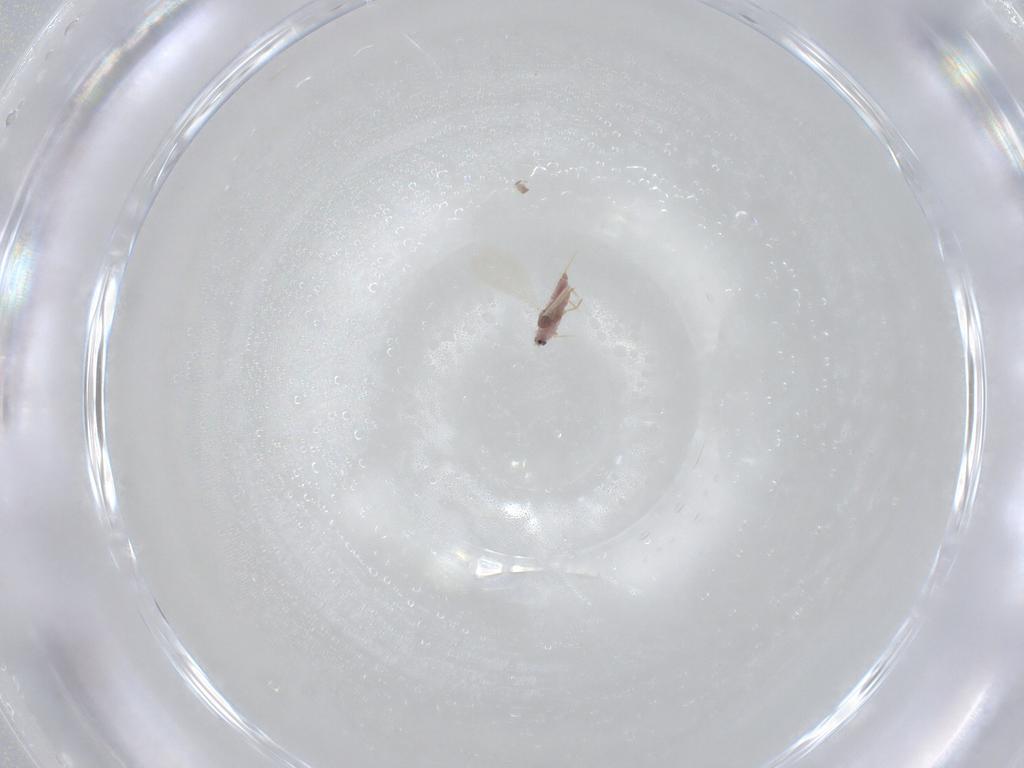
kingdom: Animalia
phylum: Arthropoda
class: Insecta
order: Hemiptera
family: Diaspididae
